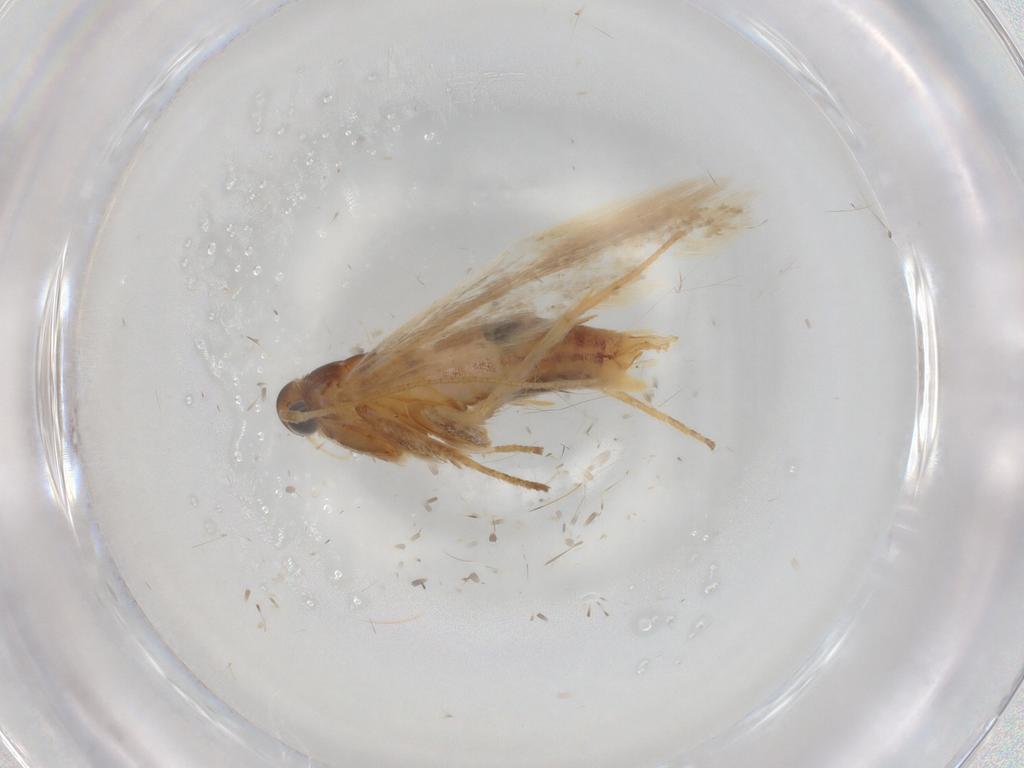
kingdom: Animalia
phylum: Arthropoda
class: Insecta
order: Lepidoptera
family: Gelechiidae
